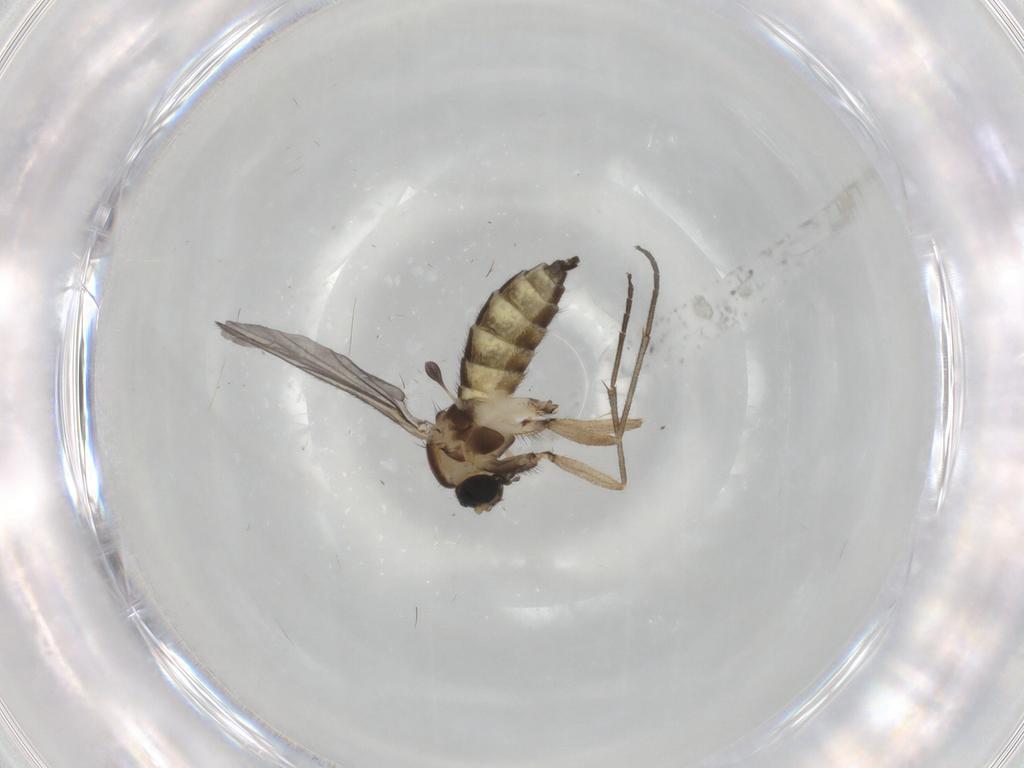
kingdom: Animalia
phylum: Arthropoda
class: Insecta
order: Diptera
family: Sciaridae
